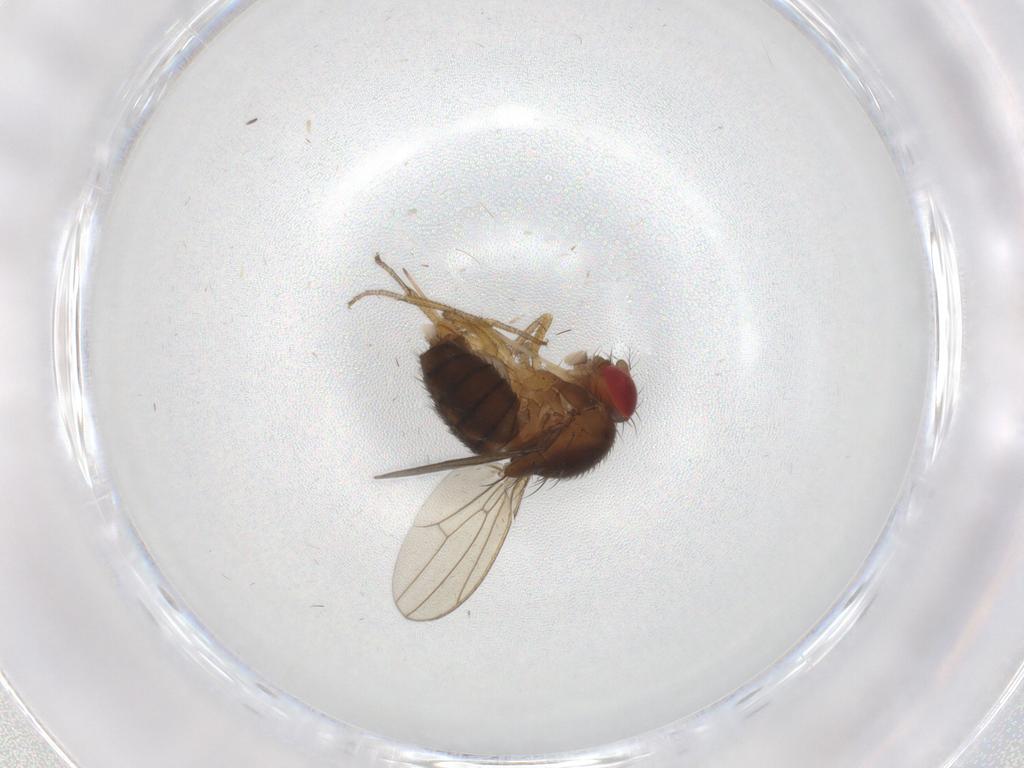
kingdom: Animalia
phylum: Arthropoda
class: Insecta
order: Diptera
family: Drosophilidae
